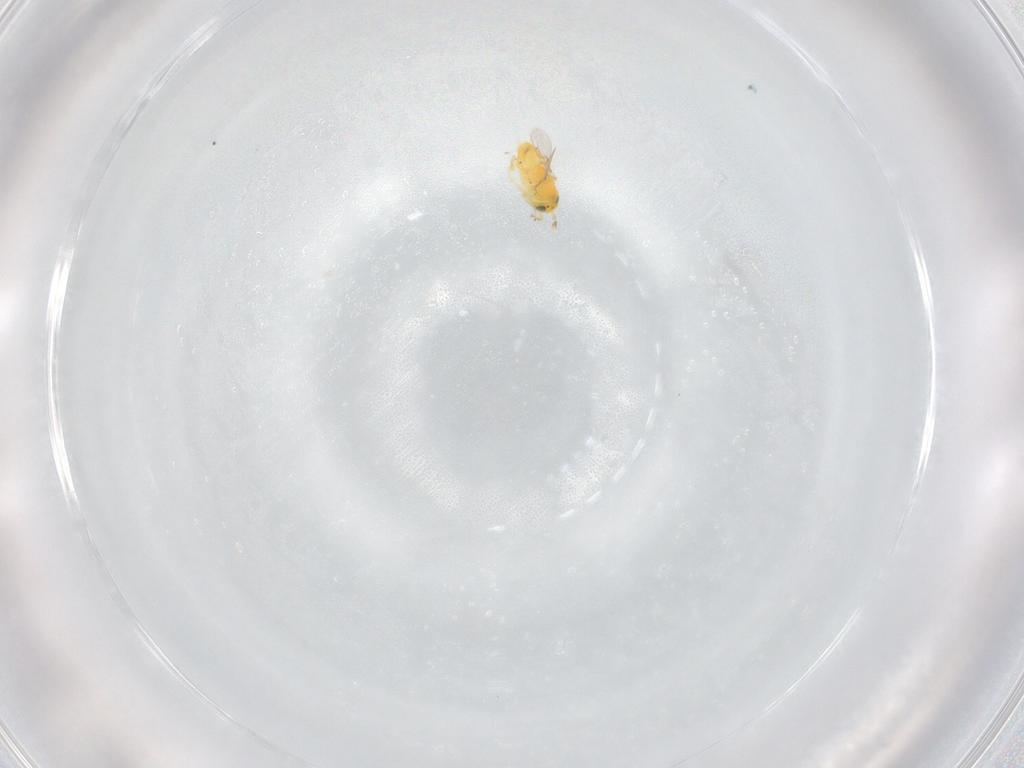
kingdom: Animalia
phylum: Arthropoda
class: Insecta
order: Hymenoptera
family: Encyrtidae
